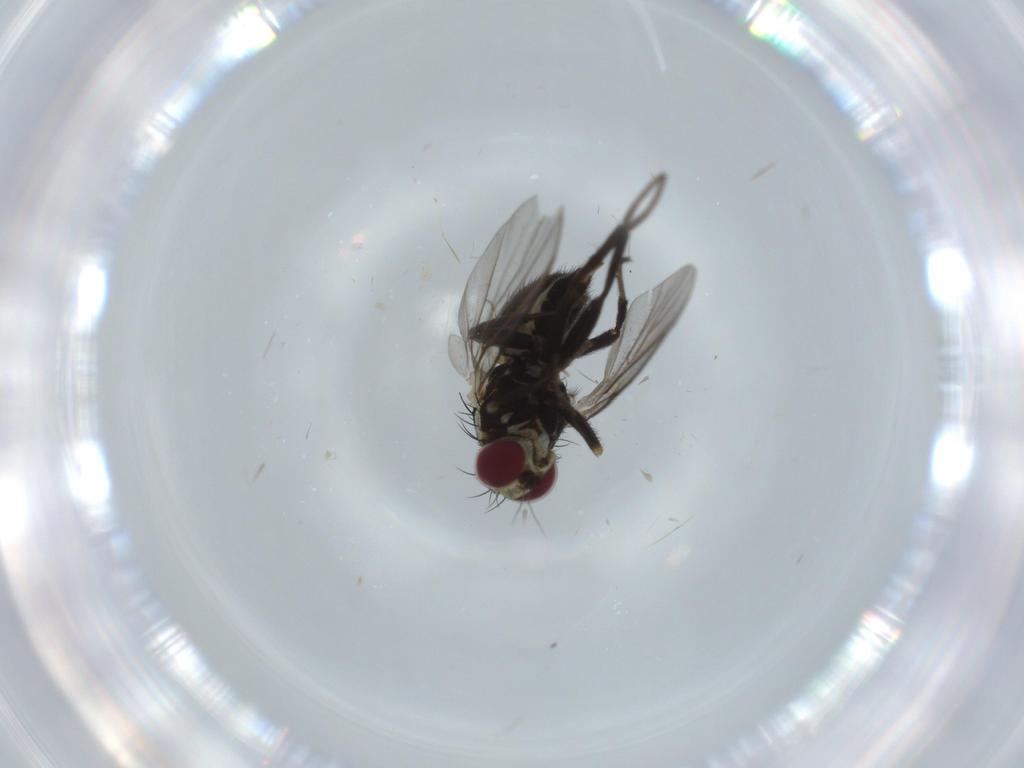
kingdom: Animalia
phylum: Arthropoda
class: Insecta
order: Diptera
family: Agromyzidae
